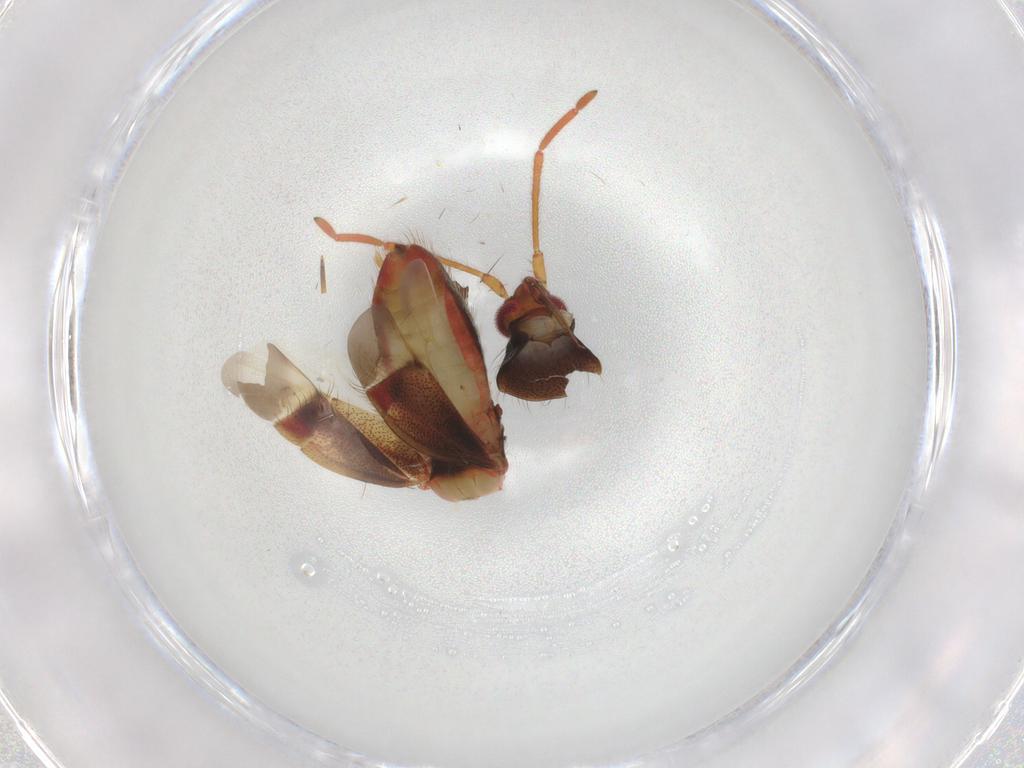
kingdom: Animalia
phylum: Arthropoda
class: Insecta
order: Hemiptera
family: Miridae
